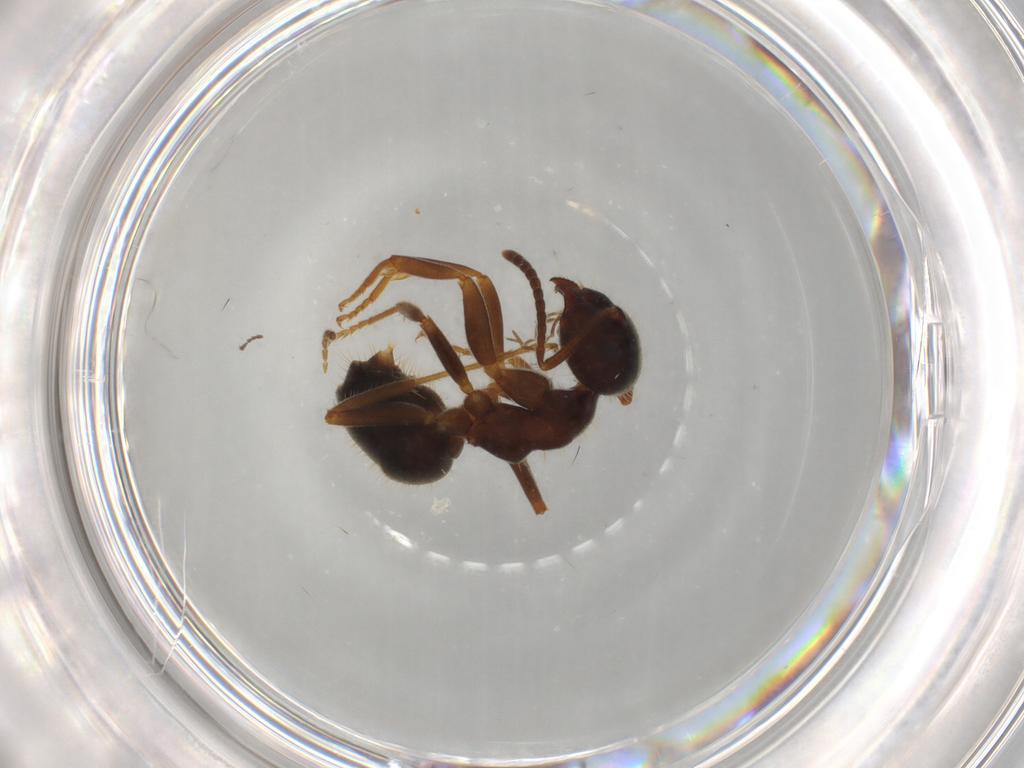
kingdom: Animalia
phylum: Arthropoda
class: Insecta
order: Hymenoptera
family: Formicidae
